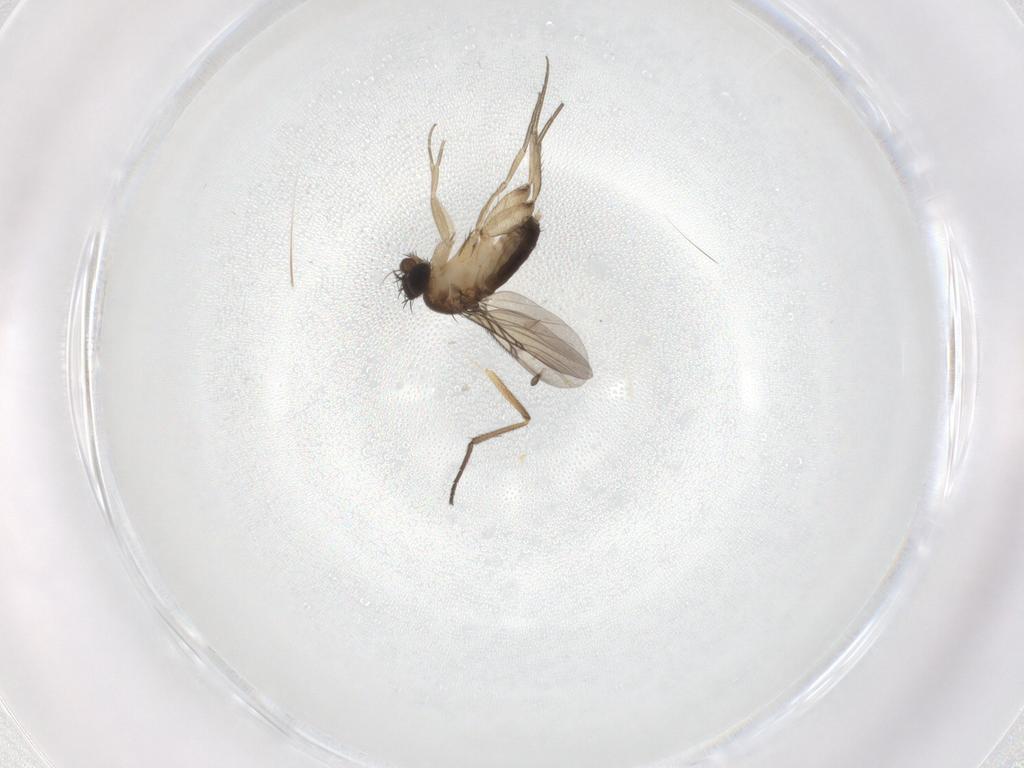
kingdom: Animalia
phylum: Arthropoda
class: Insecta
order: Diptera
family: Phoridae
